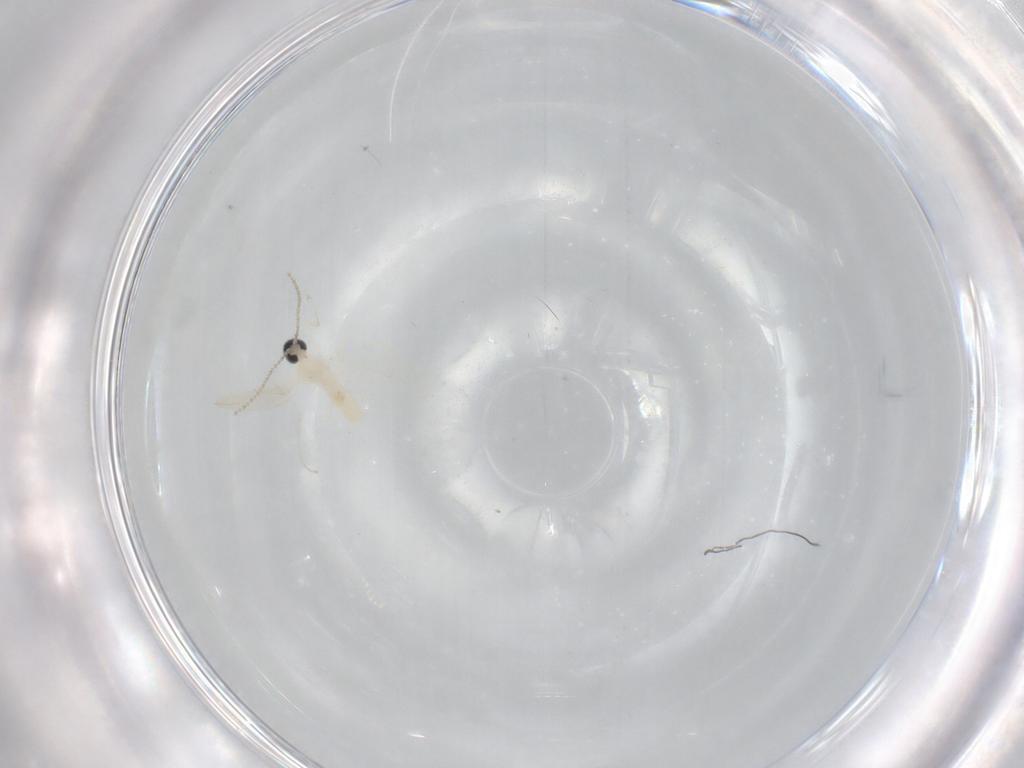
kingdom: Animalia
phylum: Arthropoda
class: Insecta
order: Diptera
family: Cecidomyiidae
